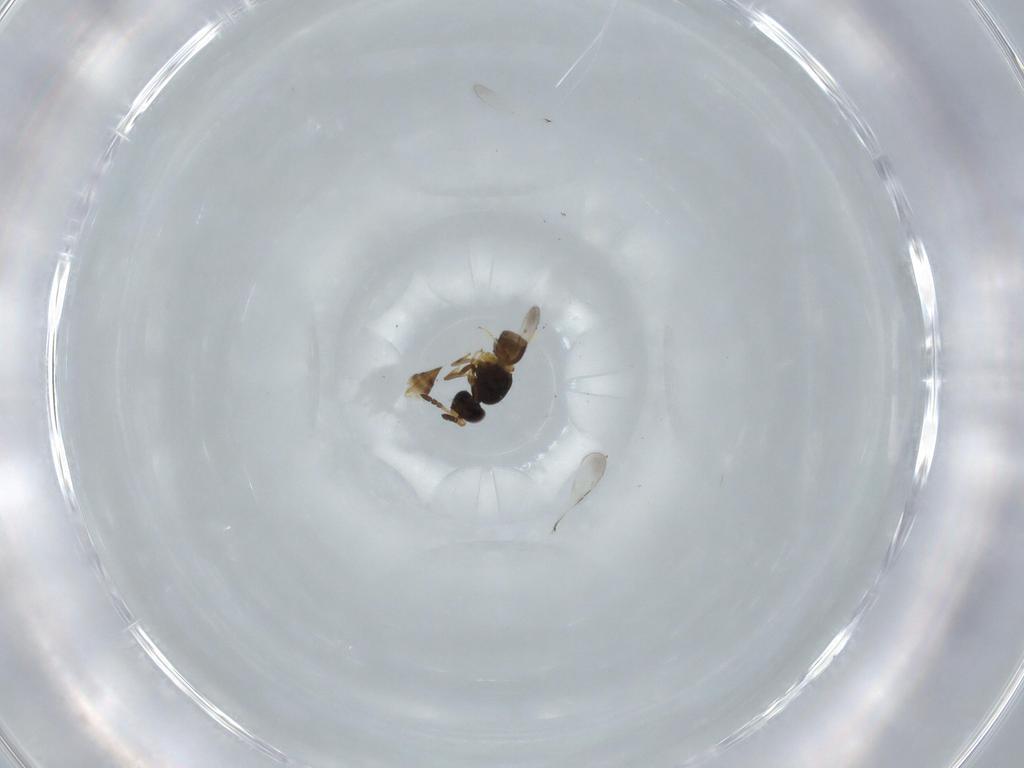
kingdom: Animalia
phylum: Arthropoda
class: Insecta
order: Hymenoptera
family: Ceraphronidae
